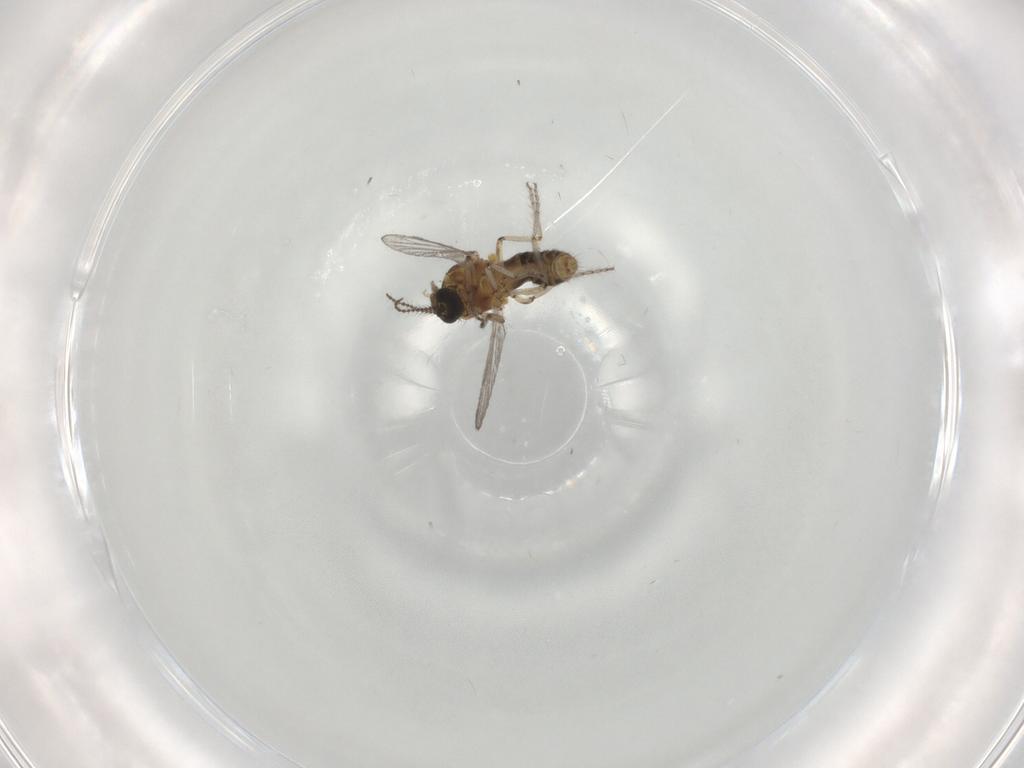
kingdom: Animalia
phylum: Arthropoda
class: Insecta
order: Diptera
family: Ceratopogonidae
